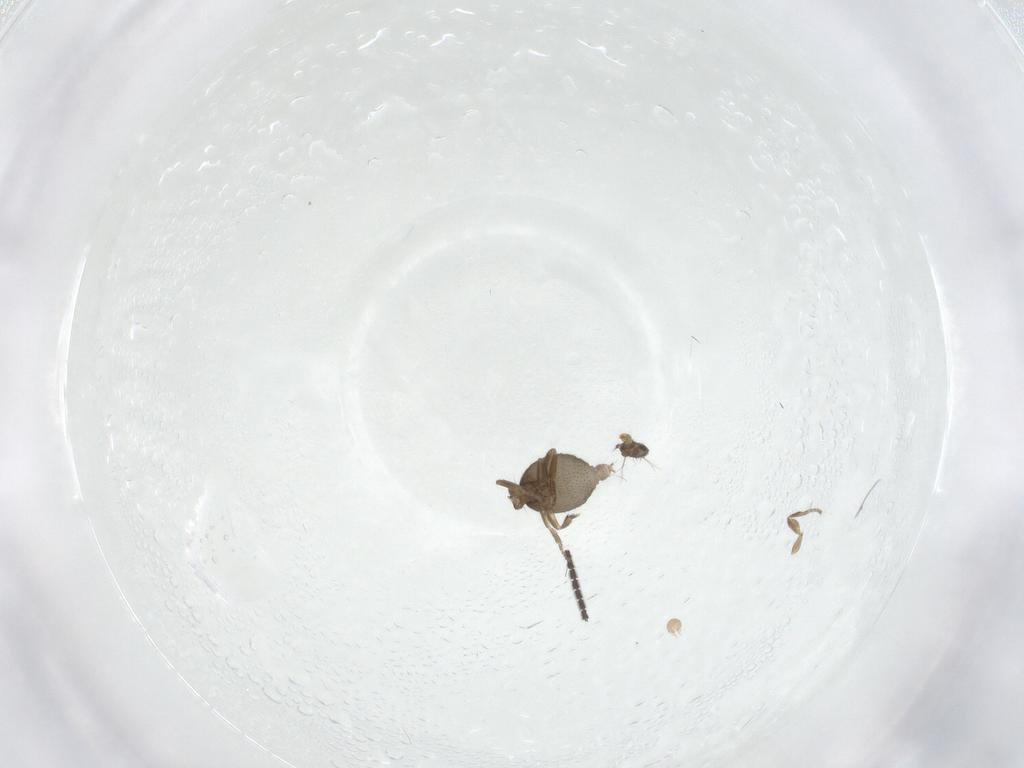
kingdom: Animalia
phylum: Arthropoda
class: Insecta
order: Diptera
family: Sciaridae
